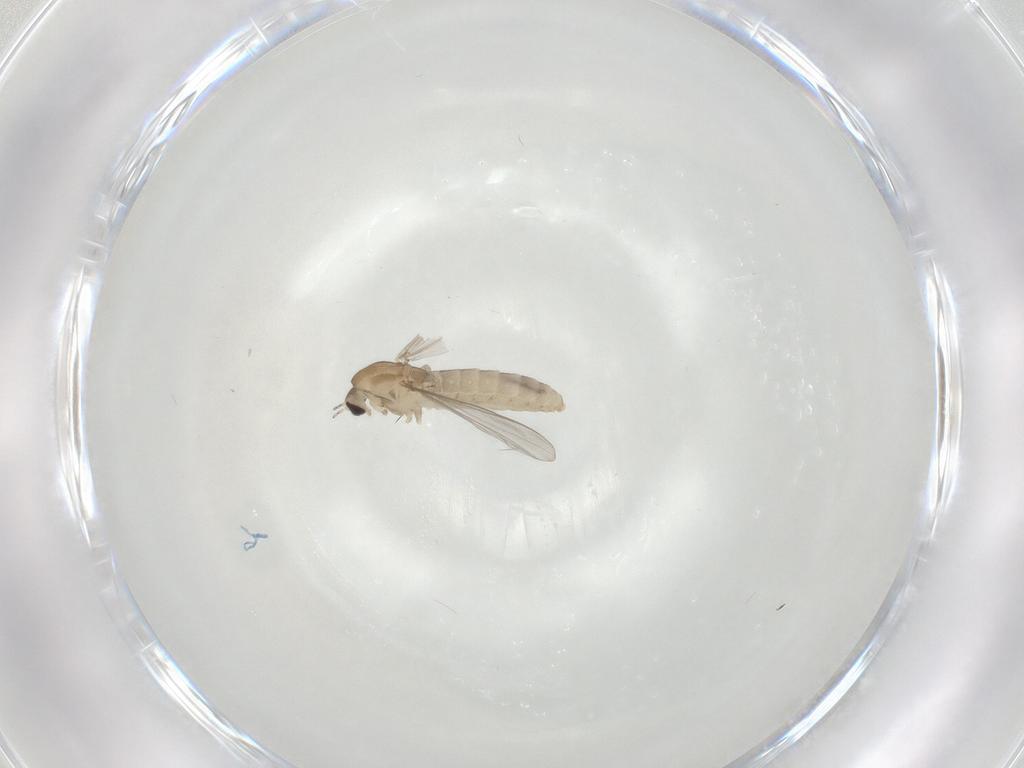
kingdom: Animalia
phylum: Arthropoda
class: Insecta
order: Diptera
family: Chironomidae
